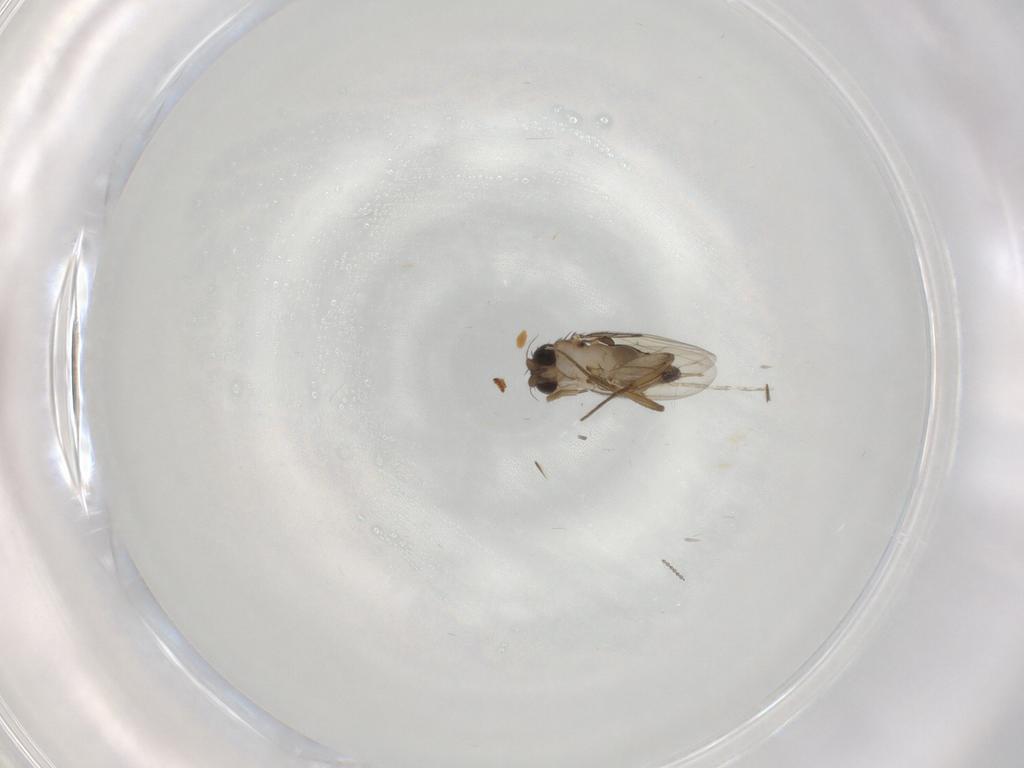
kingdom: Animalia
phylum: Arthropoda
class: Insecta
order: Diptera
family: Phoridae
